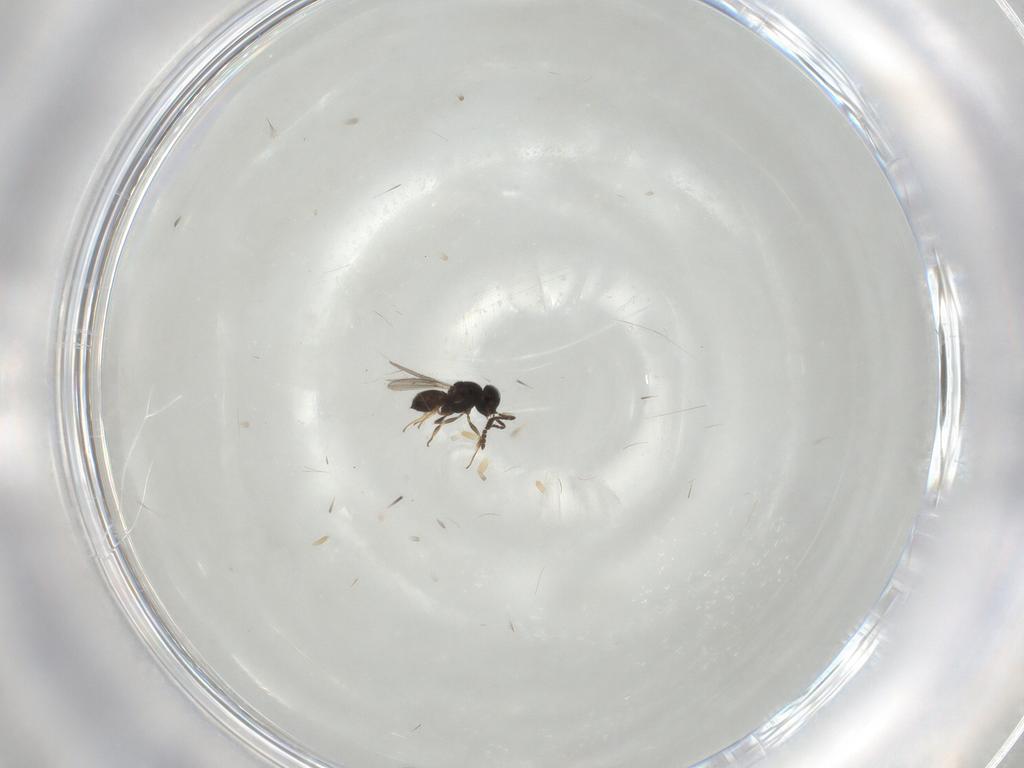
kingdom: Animalia
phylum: Arthropoda
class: Insecta
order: Hymenoptera
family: Scelionidae
